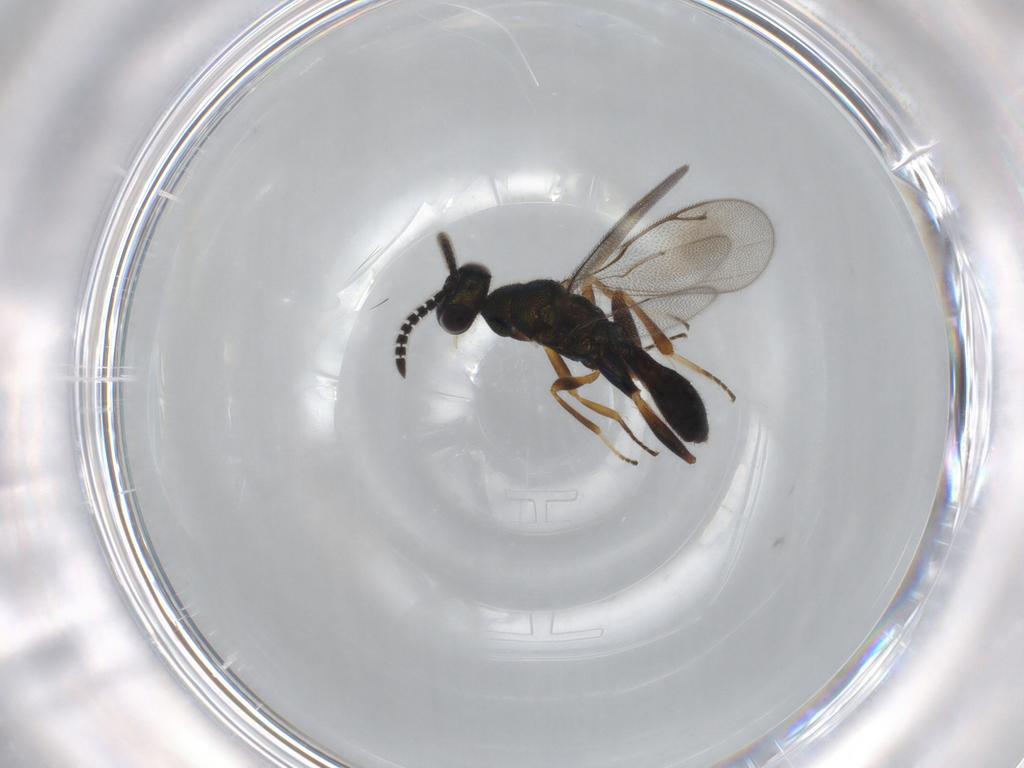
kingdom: Animalia
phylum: Arthropoda
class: Insecta
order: Hymenoptera
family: Cleonyminae
